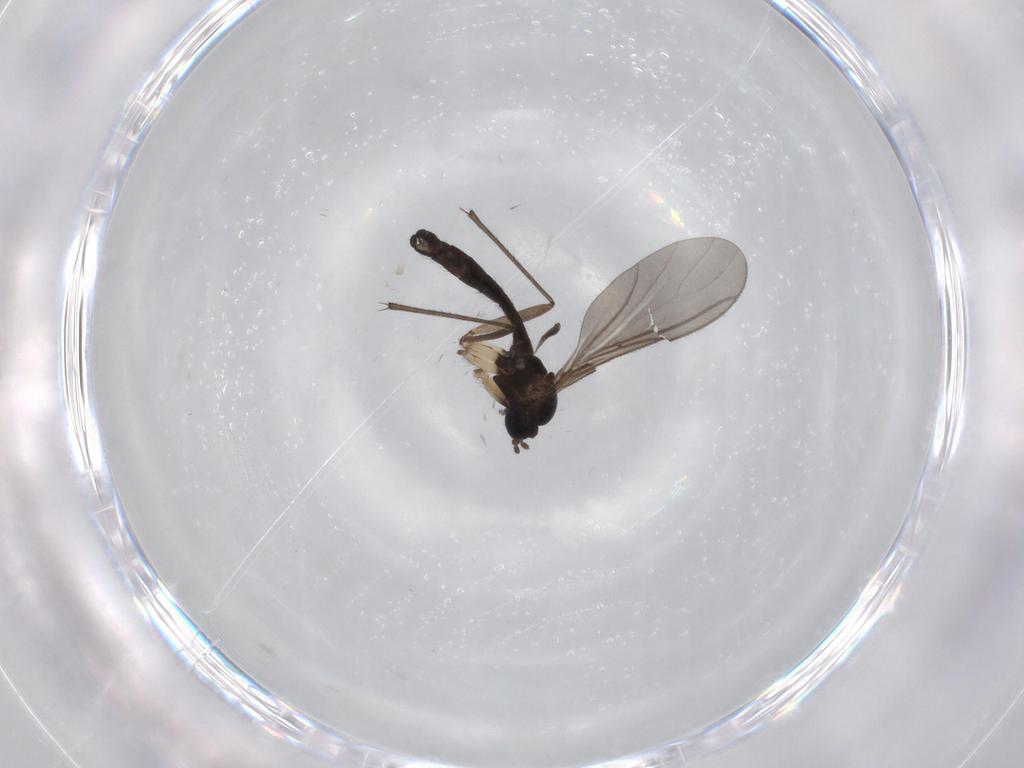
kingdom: Animalia
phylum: Arthropoda
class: Insecta
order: Diptera
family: Sciaridae
